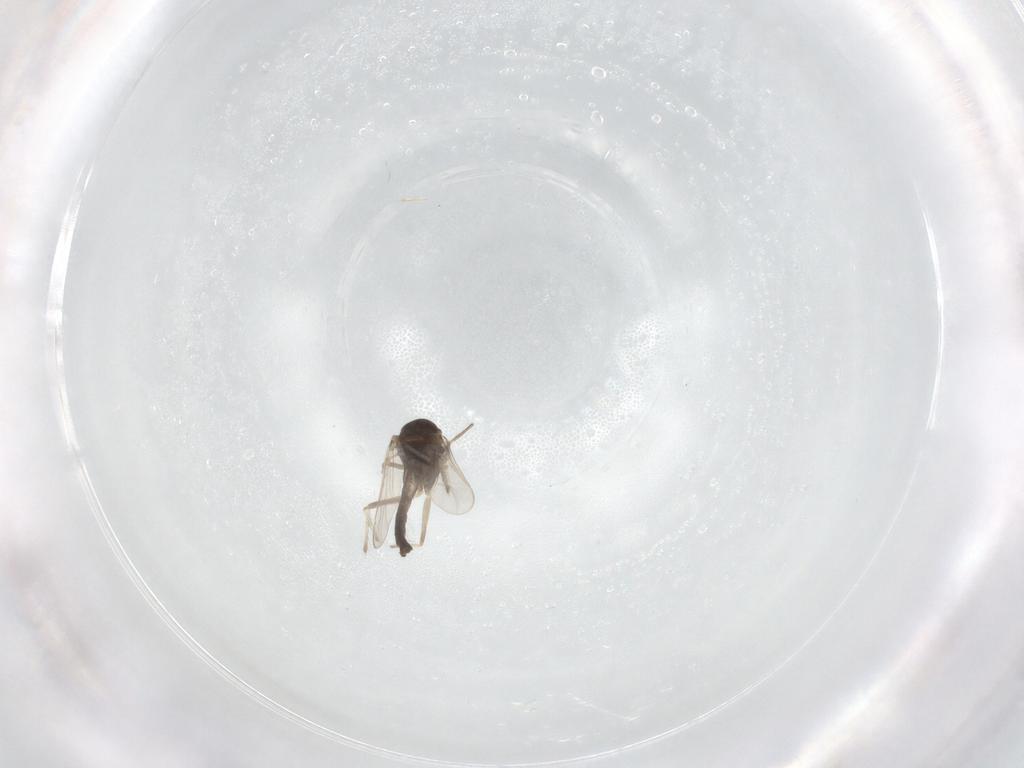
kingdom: Animalia
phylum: Arthropoda
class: Insecta
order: Diptera
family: Chironomidae
